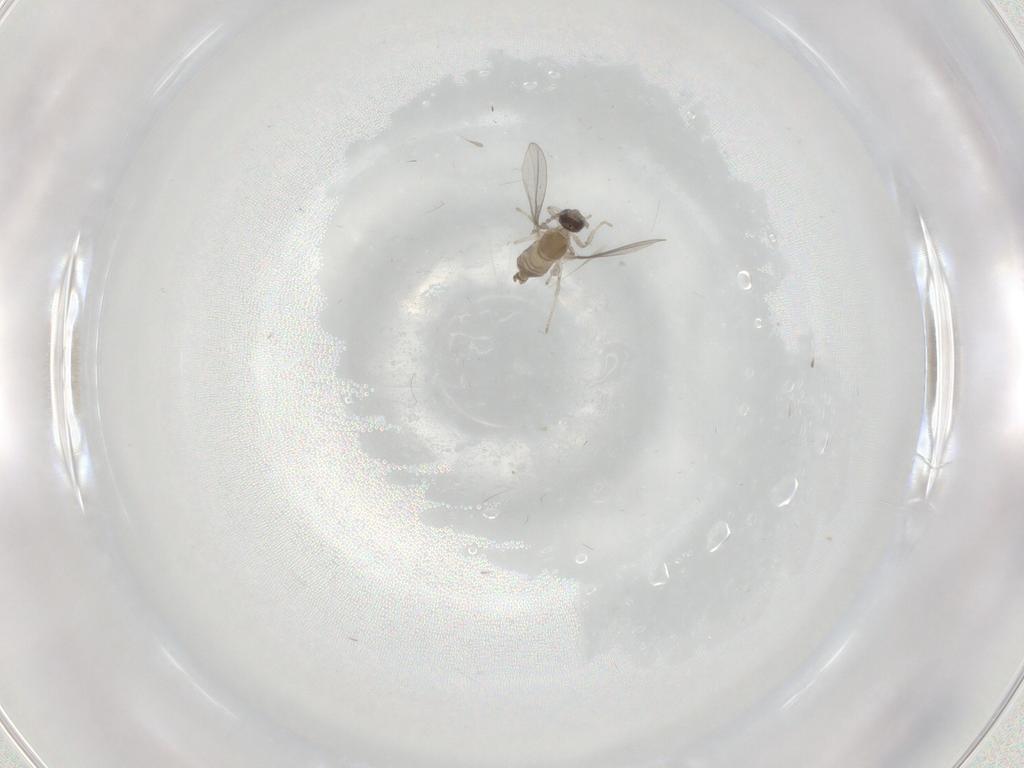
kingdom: Animalia
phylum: Arthropoda
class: Insecta
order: Diptera
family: Cecidomyiidae
